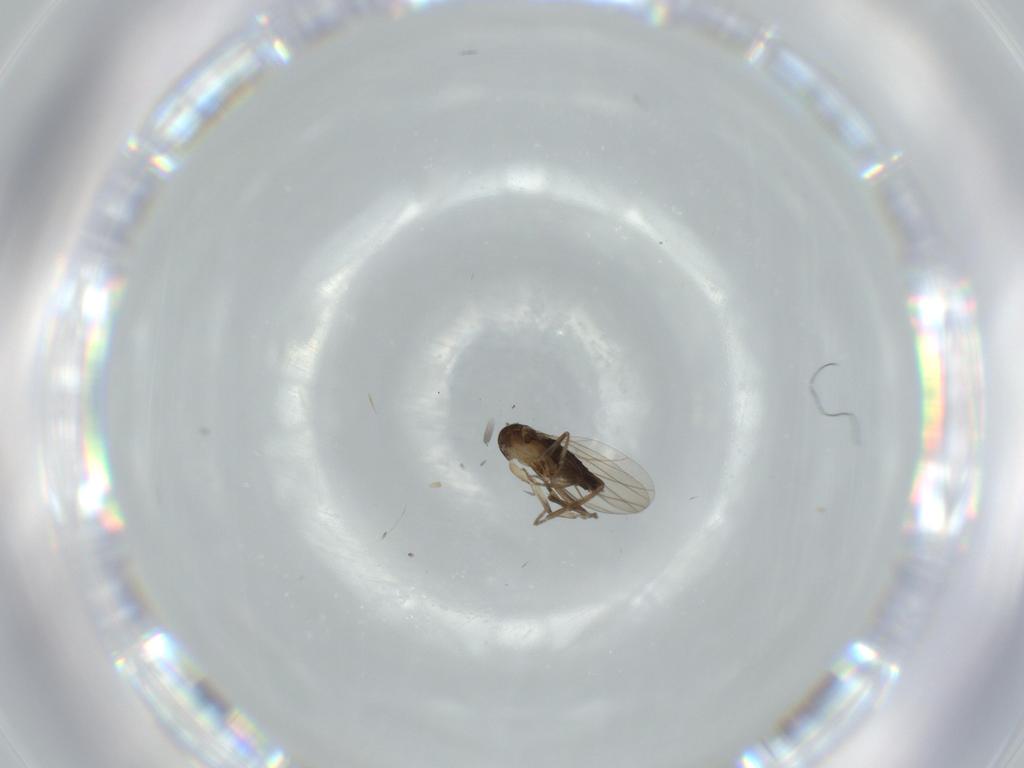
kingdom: Animalia
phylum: Arthropoda
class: Insecta
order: Diptera
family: Phoridae
